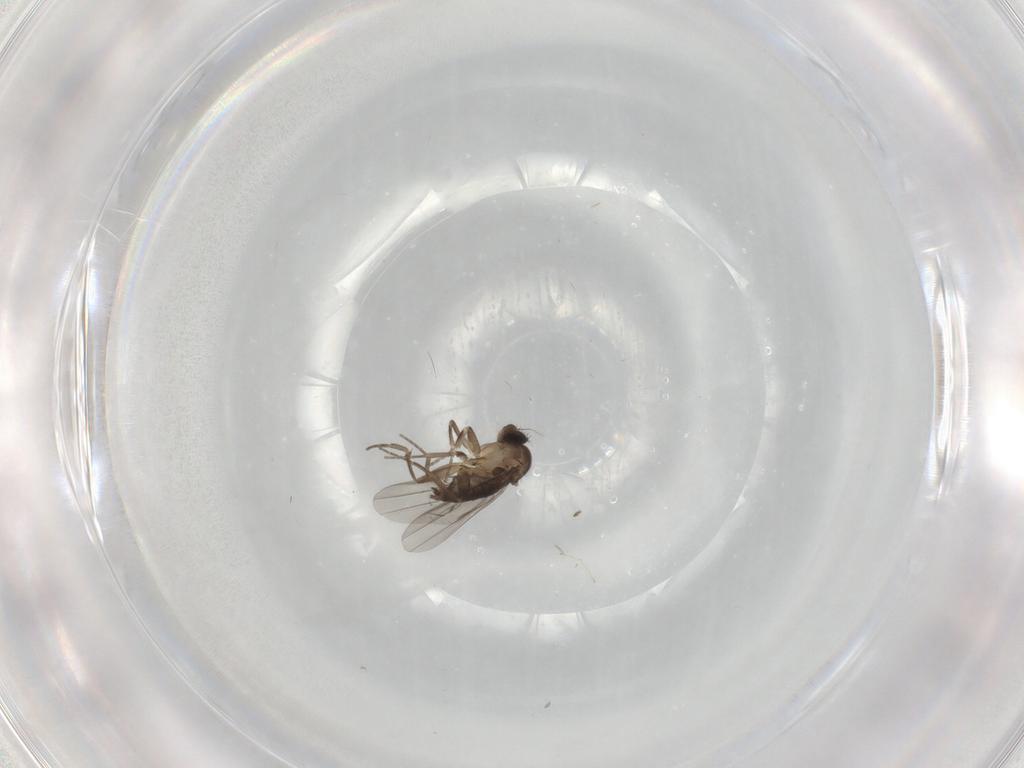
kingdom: Animalia
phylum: Arthropoda
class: Insecta
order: Diptera
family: Cecidomyiidae
